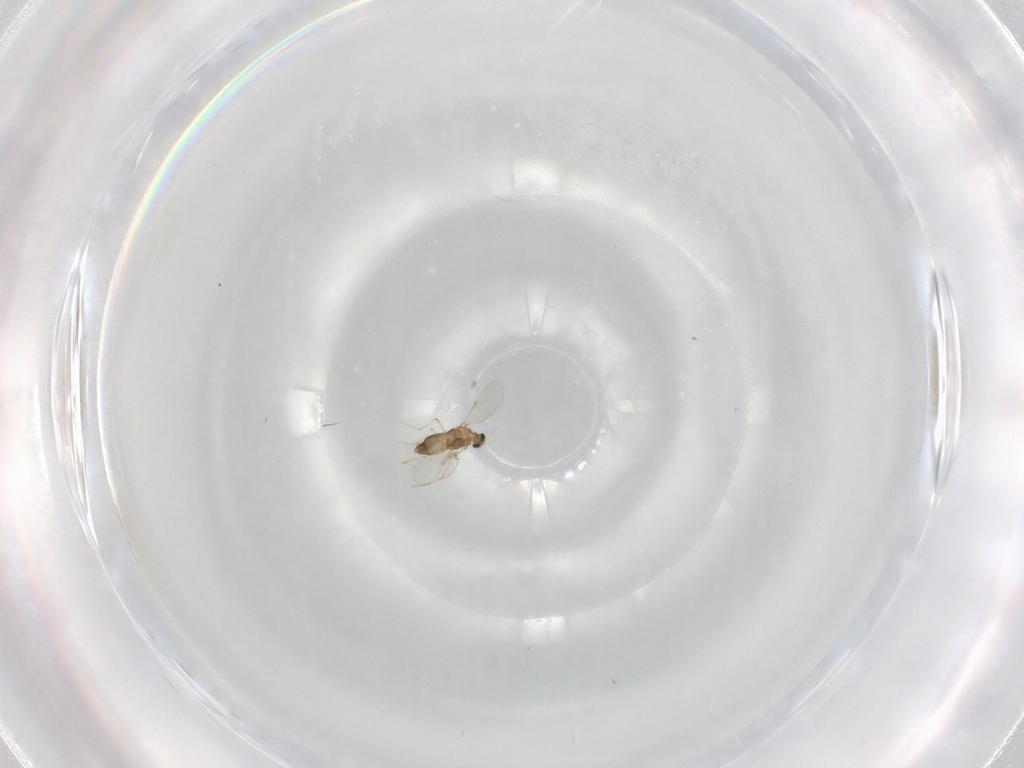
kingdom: Animalia
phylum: Arthropoda
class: Insecta
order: Diptera
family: Chironomidae
